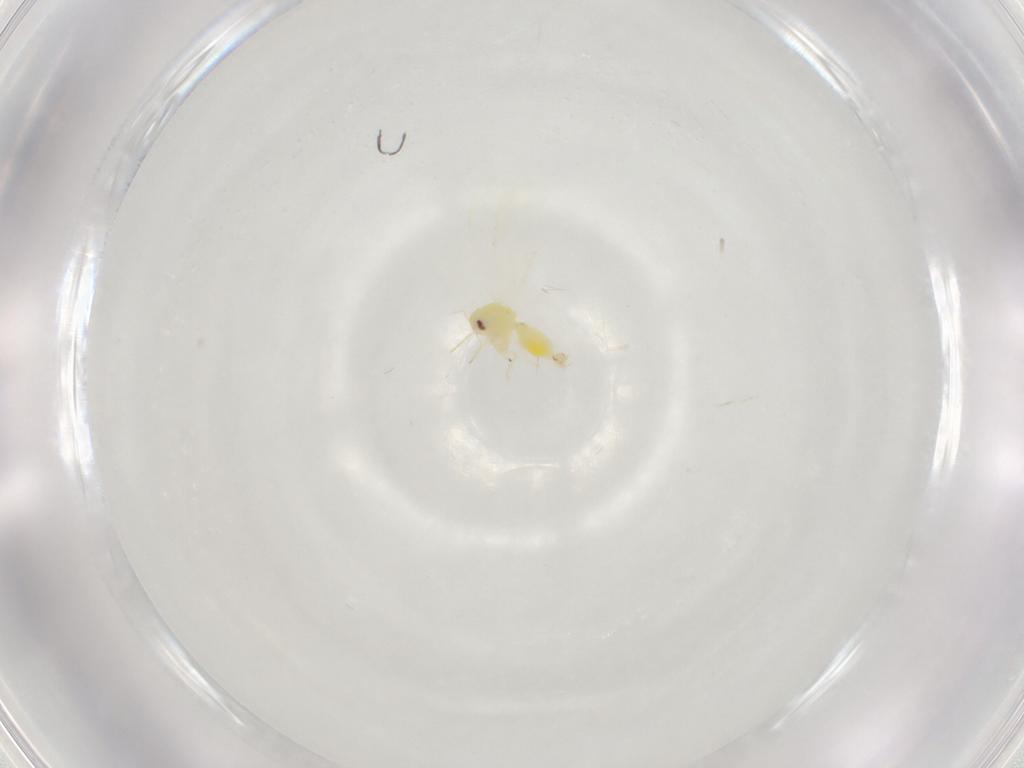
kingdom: Animalia
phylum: Arthropoda
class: Insecta
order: Hemiptera
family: Aleyrodidae
